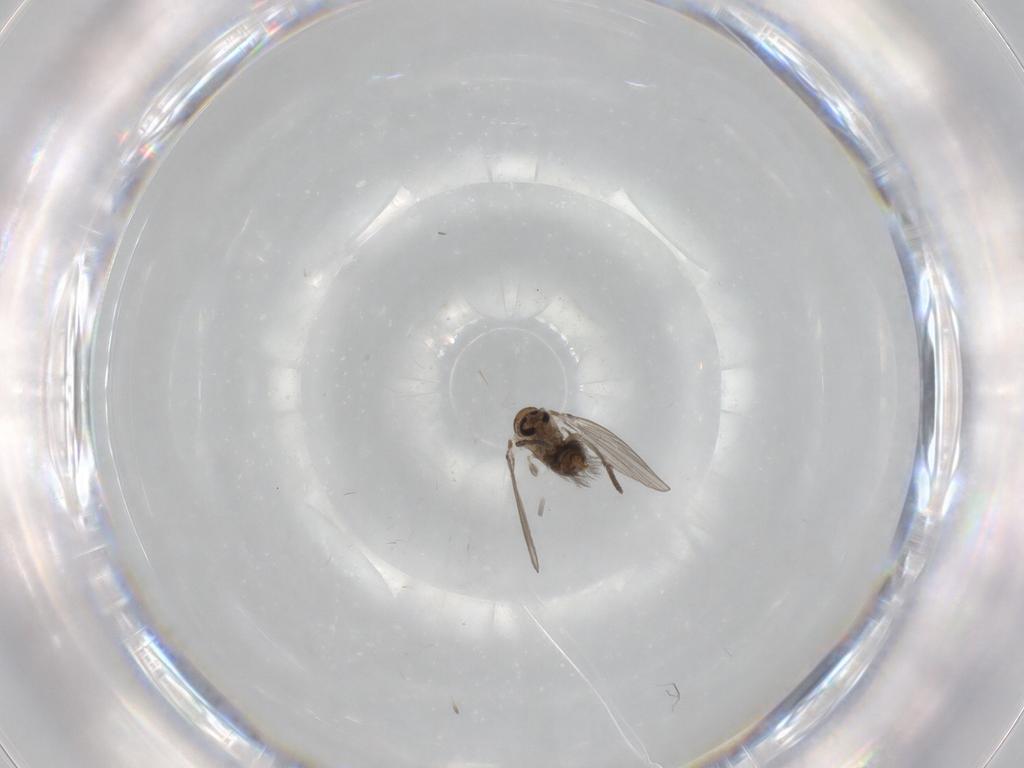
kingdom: Animalia
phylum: Arthropoda
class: Insecta
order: Diptera
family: Psychodidae
